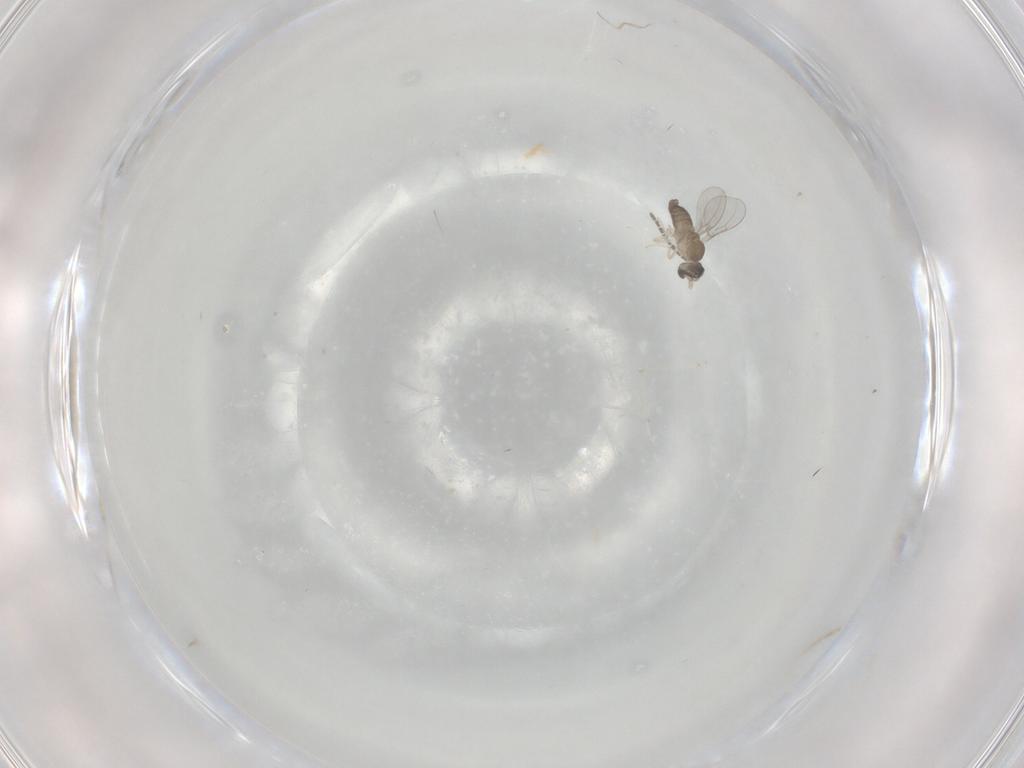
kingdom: Animalia
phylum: Arthropoda
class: Insecta
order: Diptera
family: Cecidomyiidae
